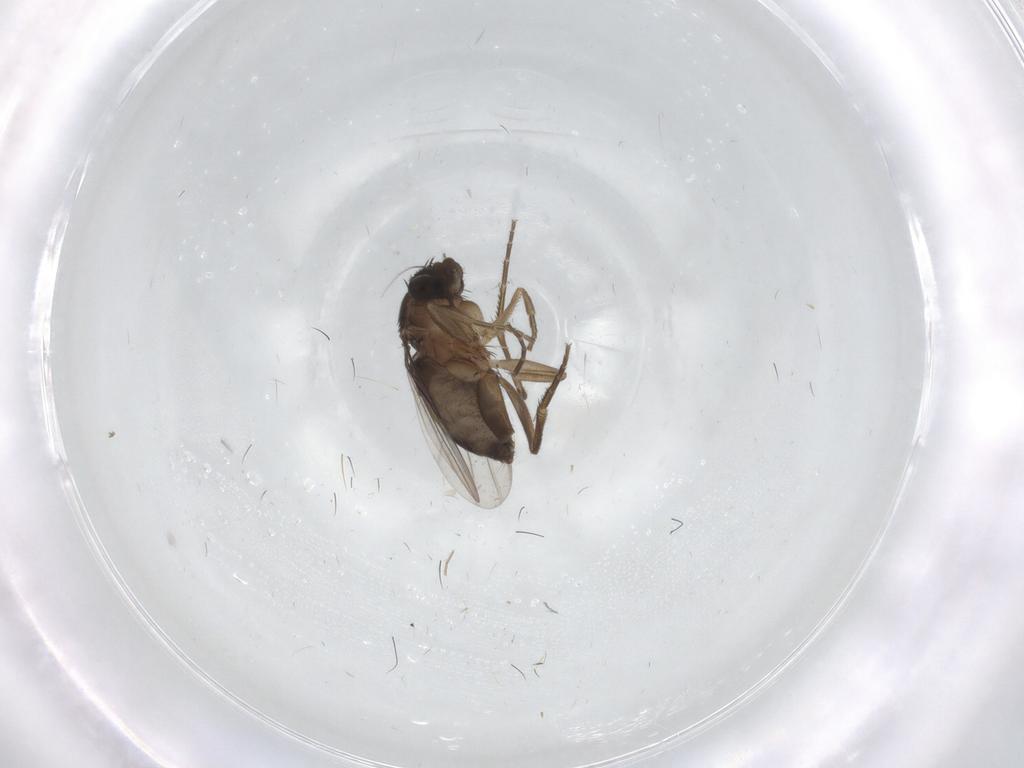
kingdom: Animalia
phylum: Arthropoda
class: Insecta
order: Diptera
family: Phoridae
